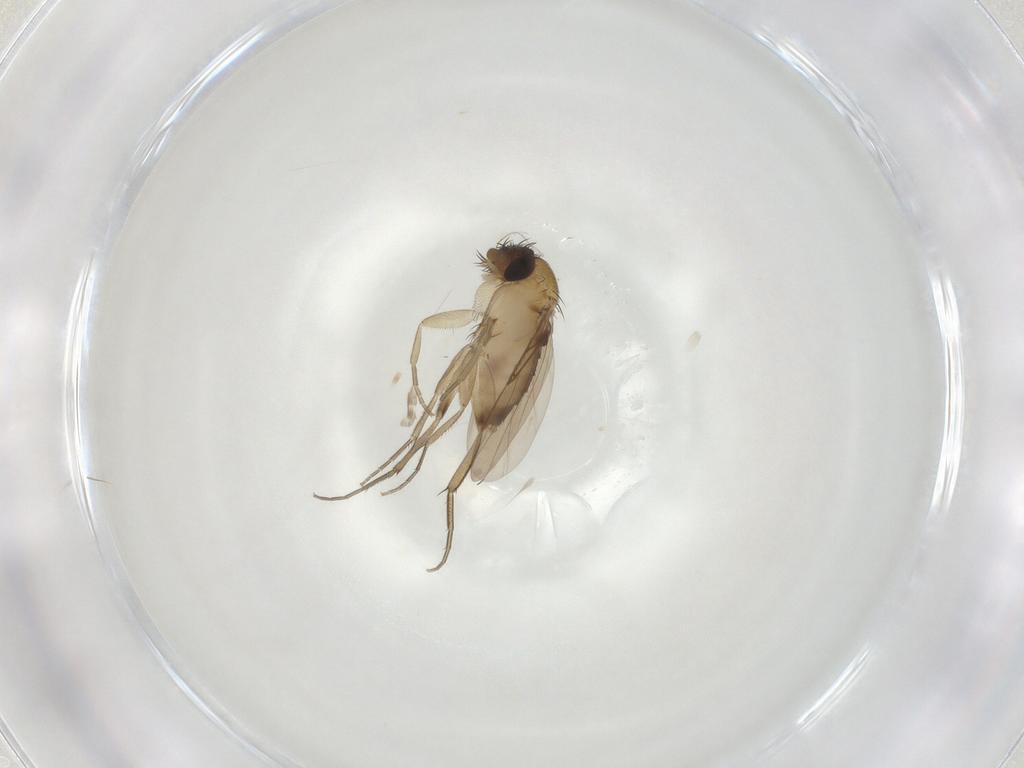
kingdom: Animalia
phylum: Arthropoda
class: Insecta
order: Diptera
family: Phoridae
